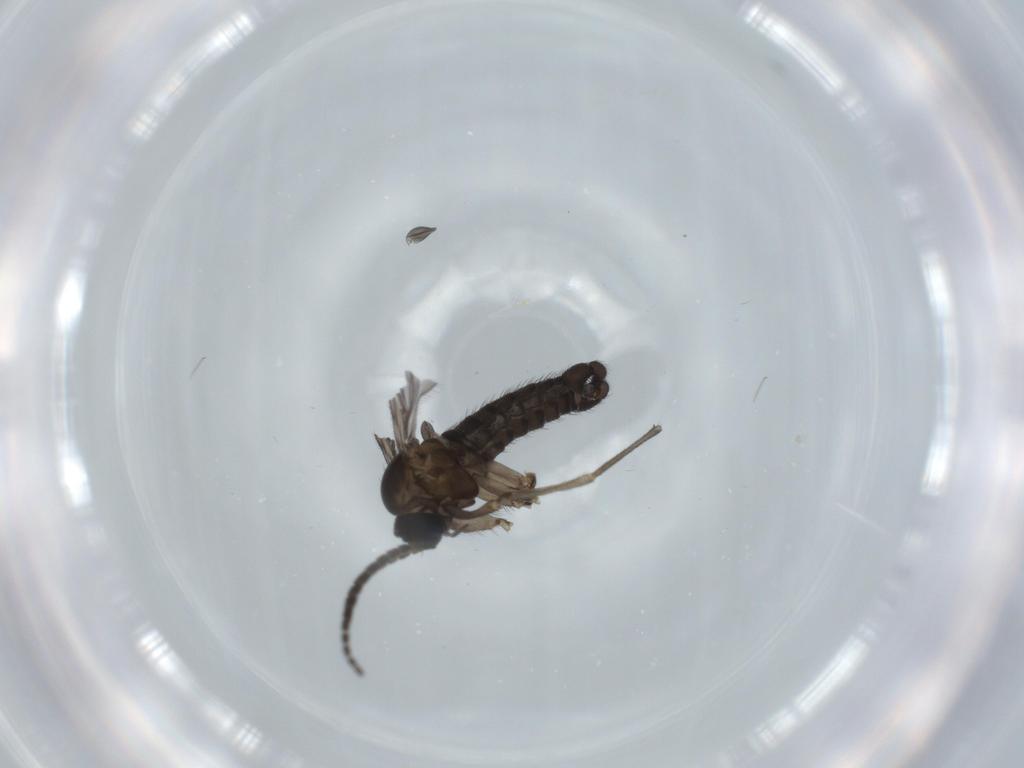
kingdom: Animalia
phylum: Arthropoda
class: Insecta
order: Diptera
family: Sciaridae
